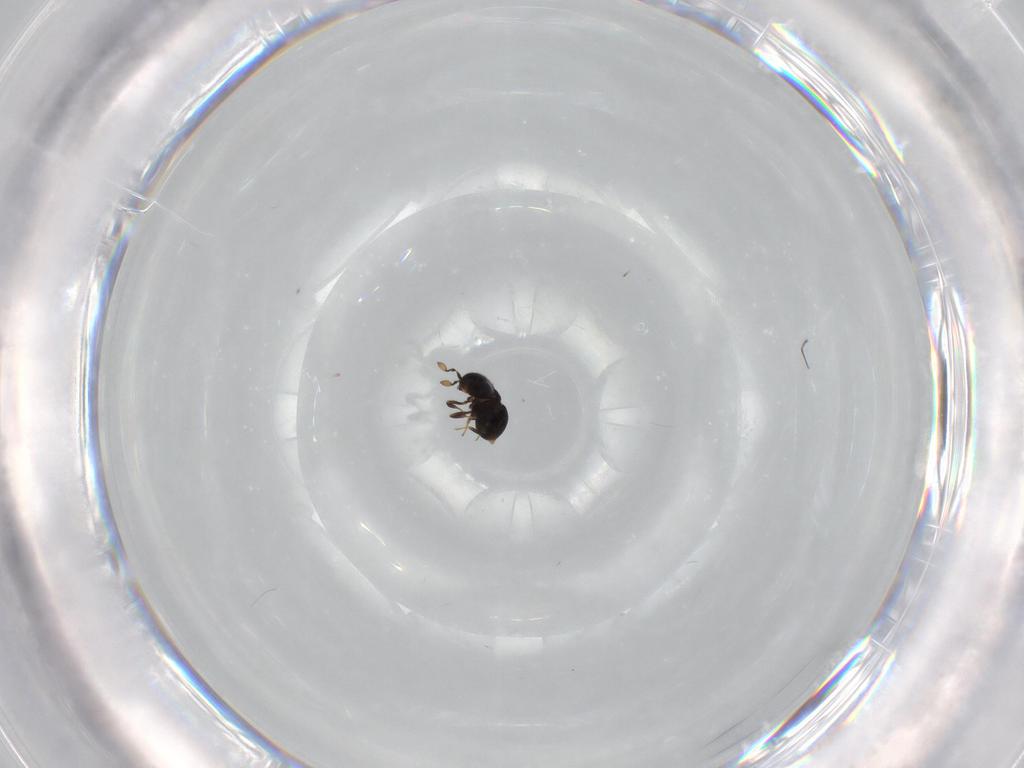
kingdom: Animalia
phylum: Arthropoda
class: Insecta
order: Hymenoptera
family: Scelionidae
